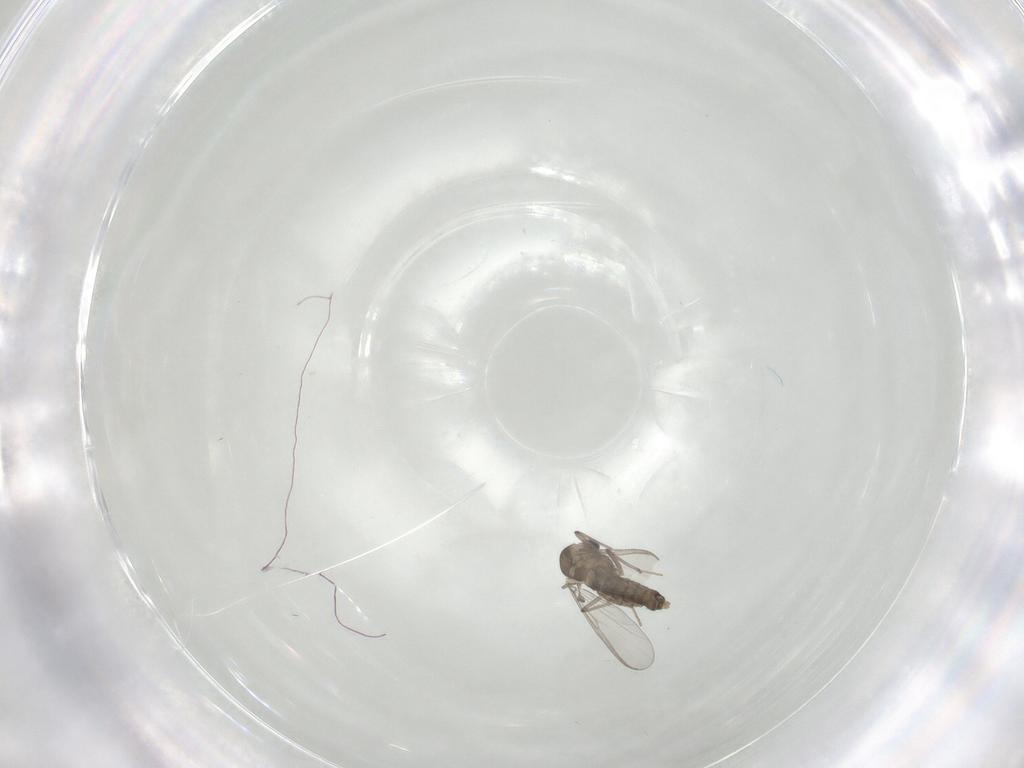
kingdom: Animalia
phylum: Arthropoda
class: Insecta
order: Diptera
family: Chironomidae
